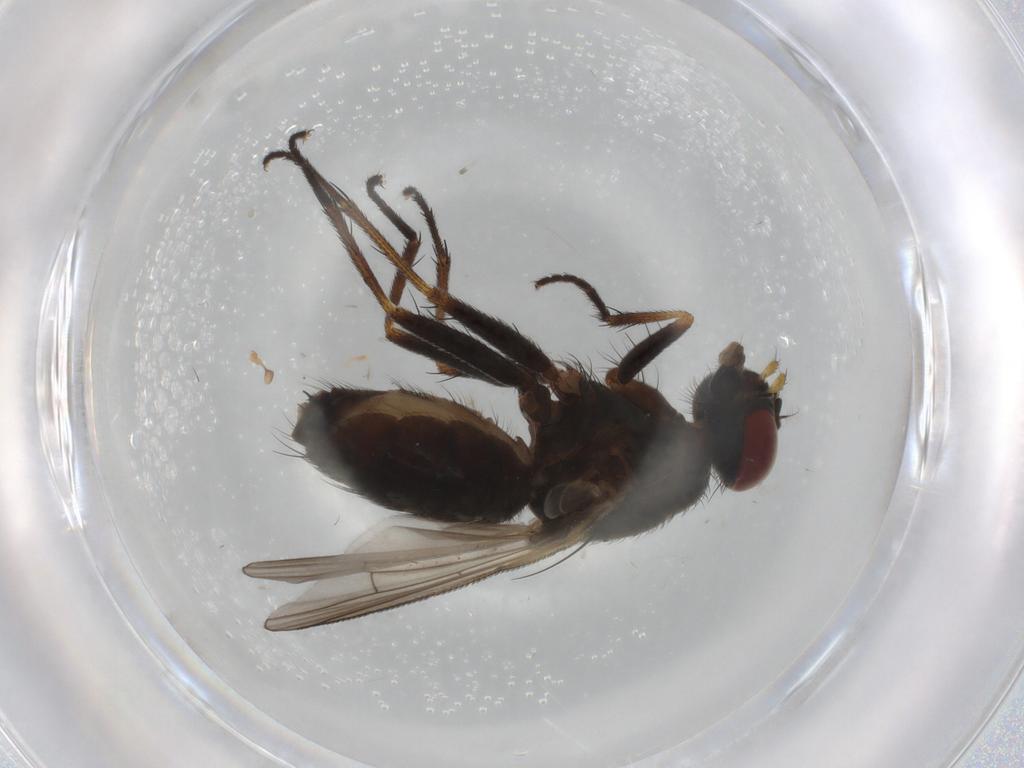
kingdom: Animalia
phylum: Arthropoda
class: Insecta
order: Diptera
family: Muscidae
